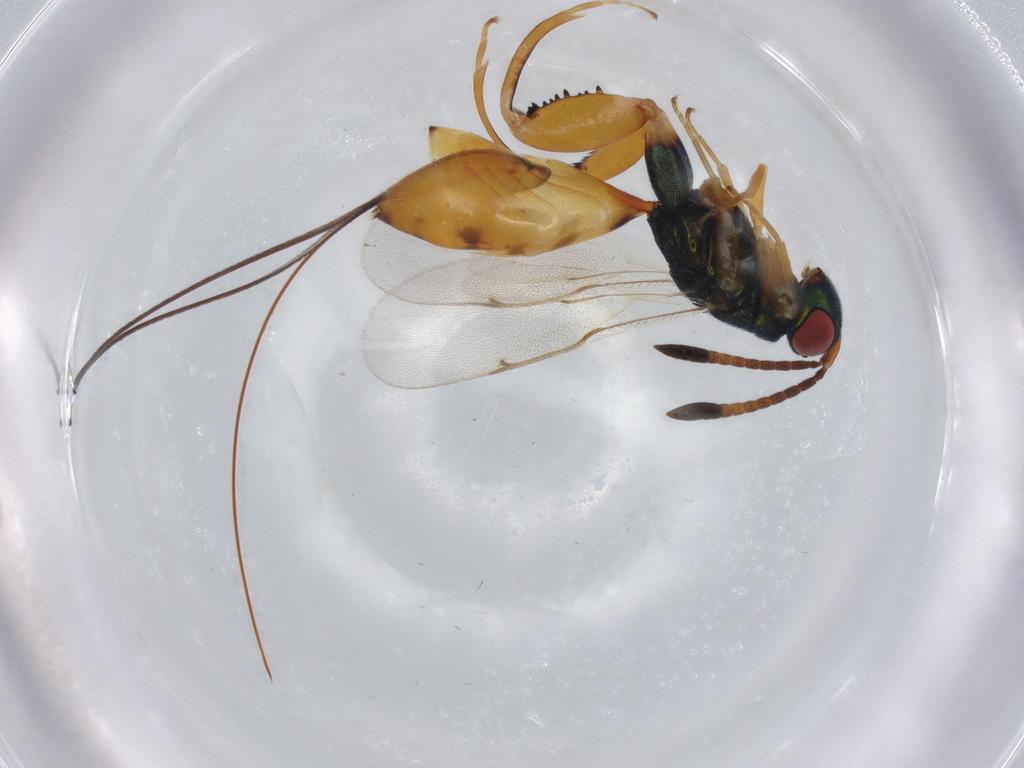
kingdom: Animalia
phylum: Arthropoda
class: Insecta
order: Hymenoptera
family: Torymidae
